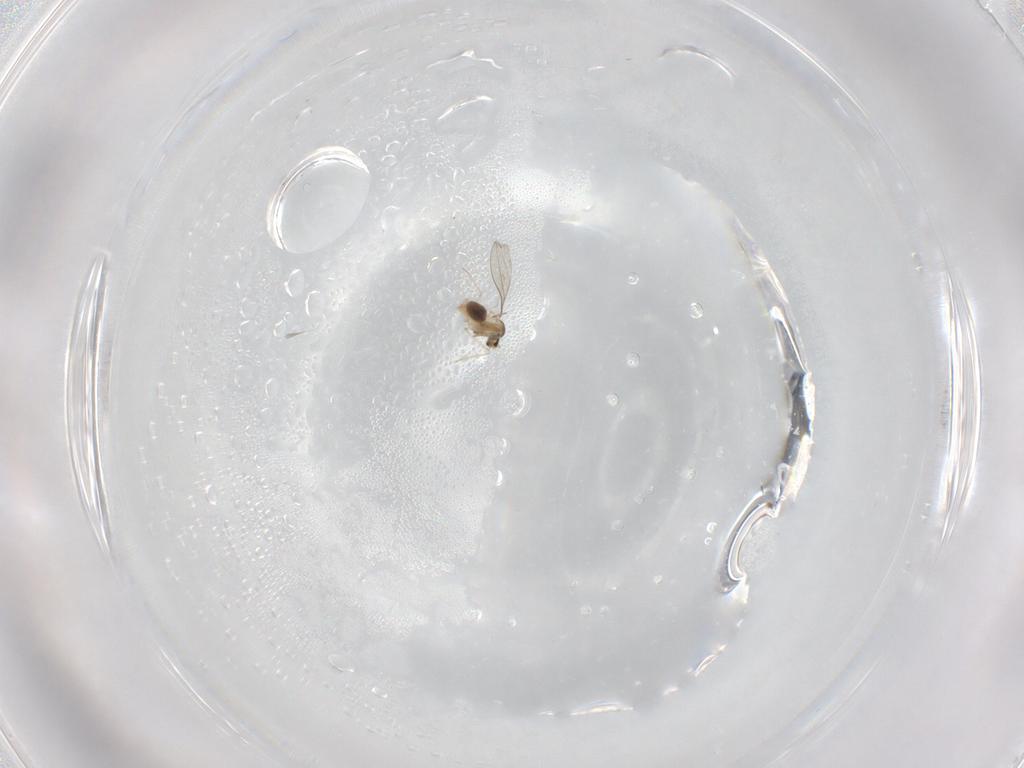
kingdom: Animalia
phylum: Arthropoda
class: Insecta
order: Diptera
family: Cecidomyiidae
